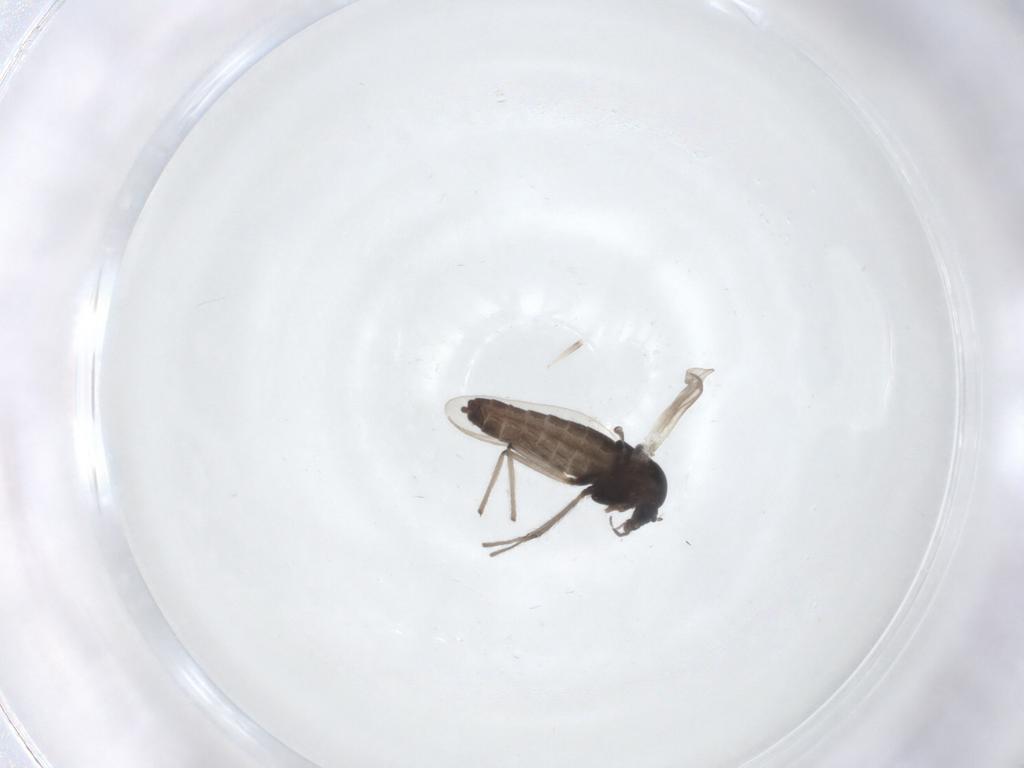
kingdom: Animalia
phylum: Arthropoda
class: Insecta
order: Diptera
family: Chironomidae
